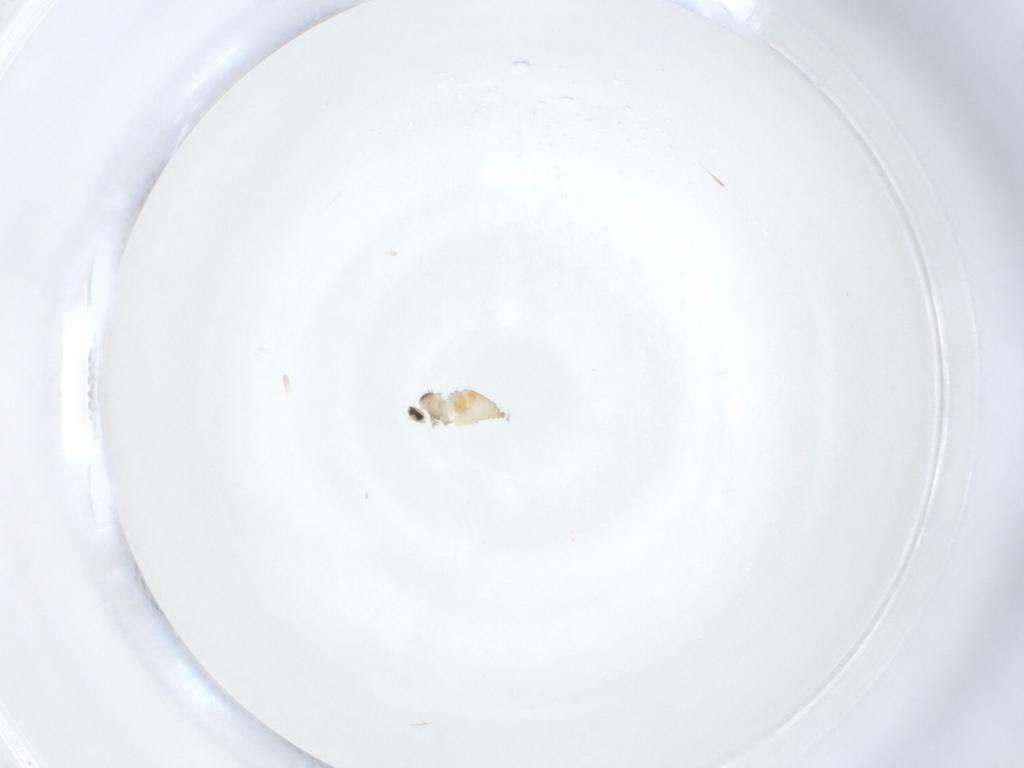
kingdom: Animalia
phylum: Arthropoda
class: Insecta
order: Diptera
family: Cecidomyiidae
